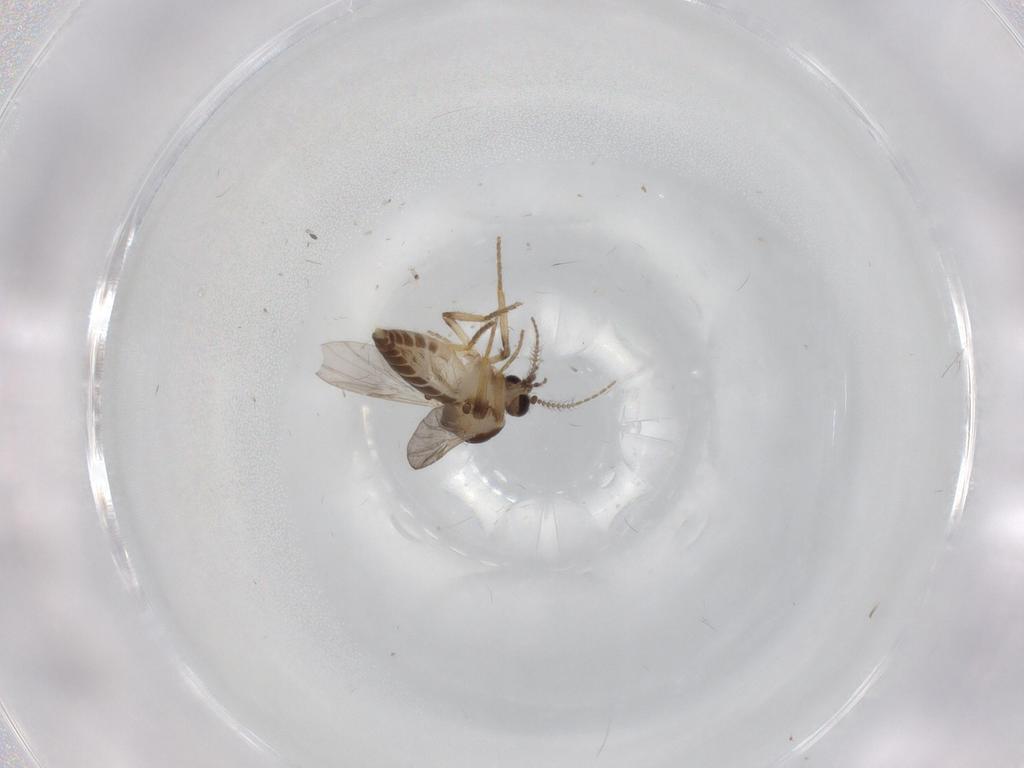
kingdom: Animalia
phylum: Arthropoda
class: Insecta
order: Diptera
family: Ceratopogonidae
